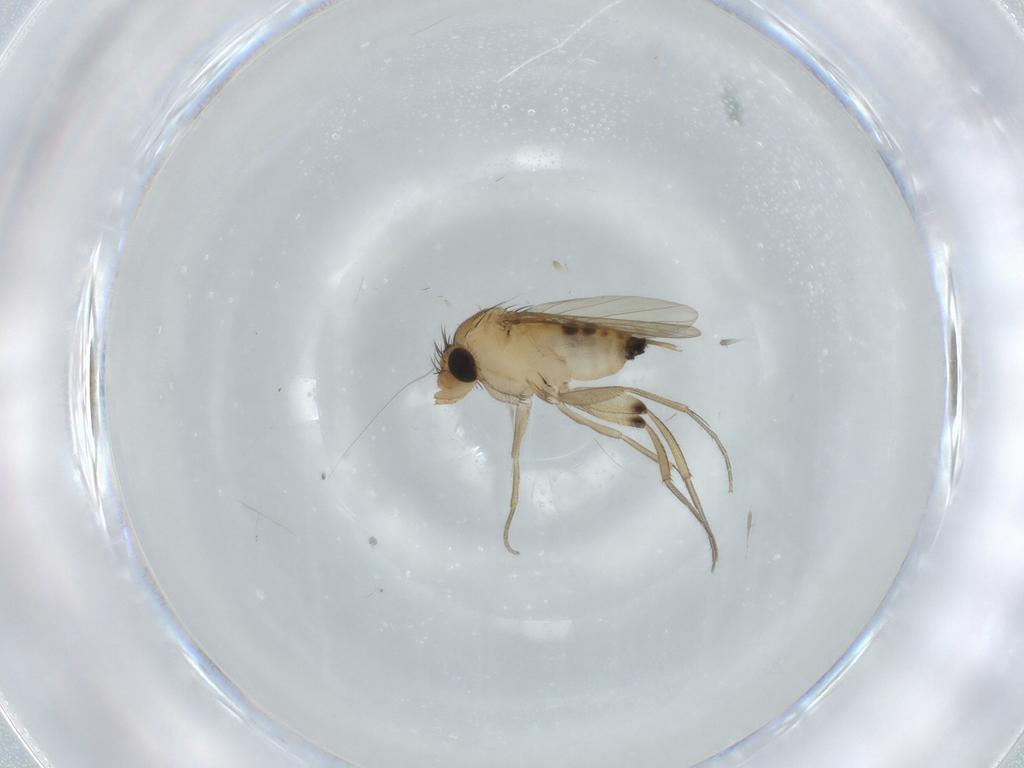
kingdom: Animalia
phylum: Arthropoda
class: Insecta
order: Diptera
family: Phoridae
